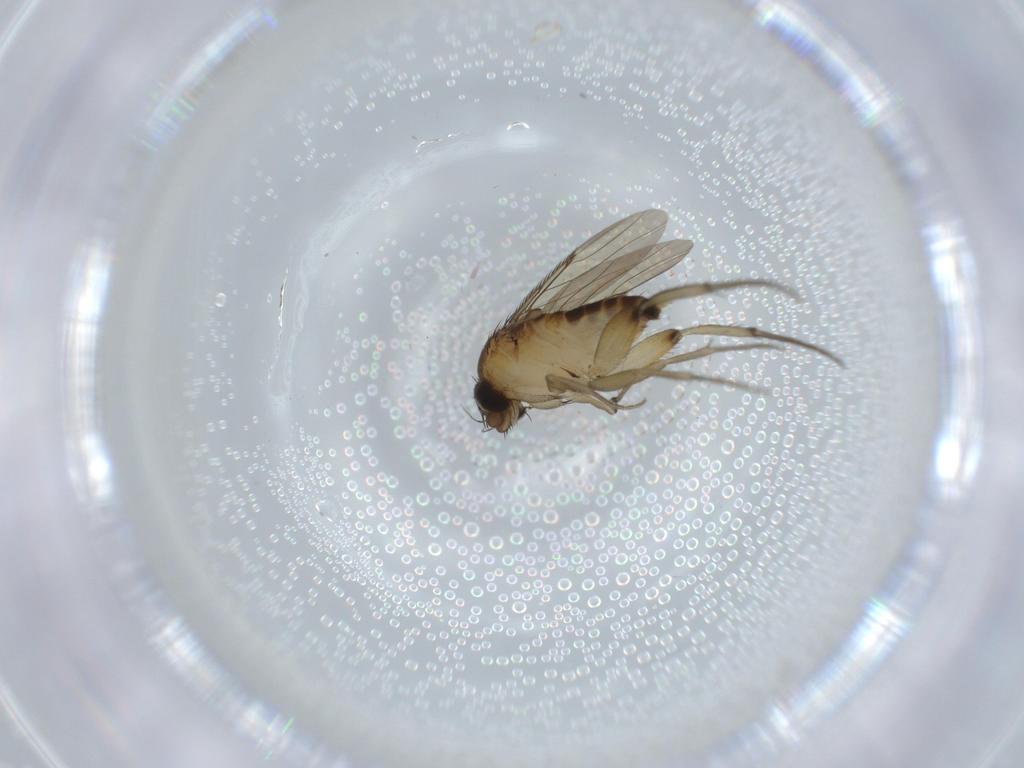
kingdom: Animalia
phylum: Arthropoda
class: Insecta
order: Diptera
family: Phoridae
